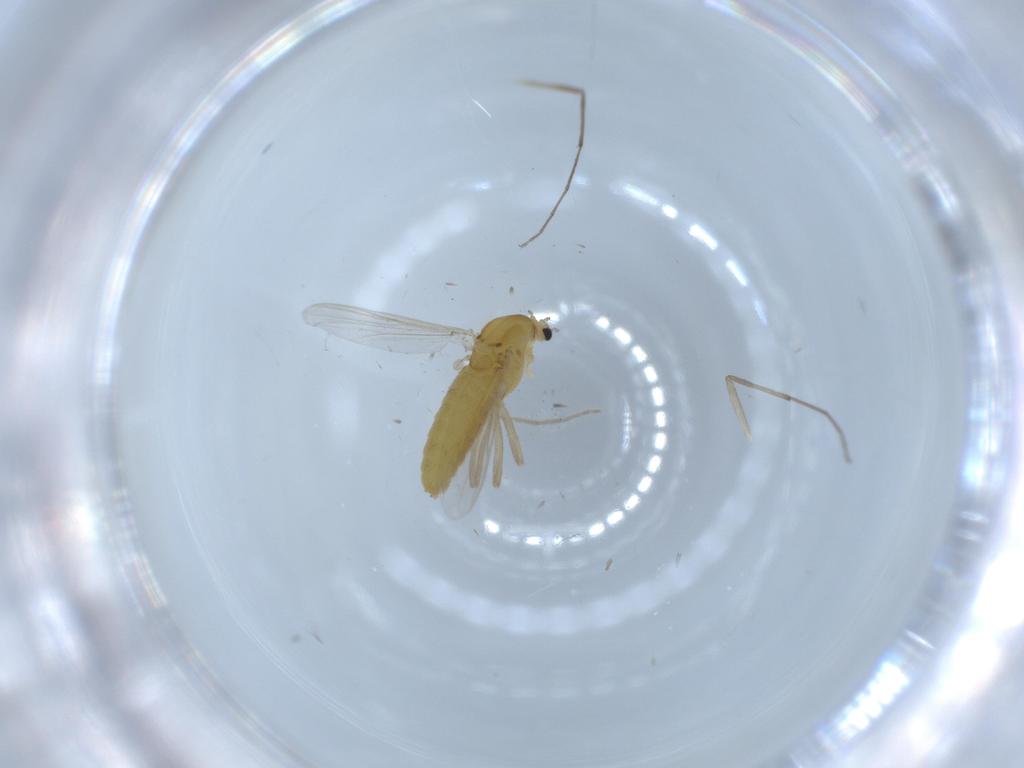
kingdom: Animalia
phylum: Arthropoda
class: Insecta
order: Diptera
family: Chironomidae
